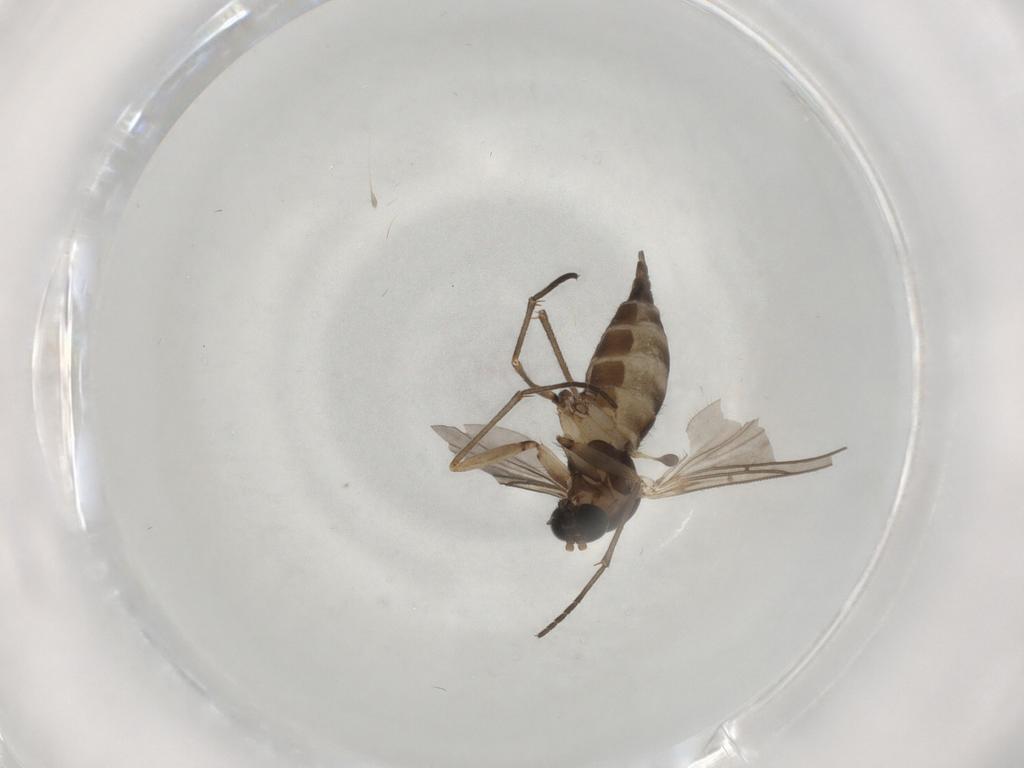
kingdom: Animalia
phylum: Arthropoda
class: Insecta
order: Diptera
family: Sciaridae
